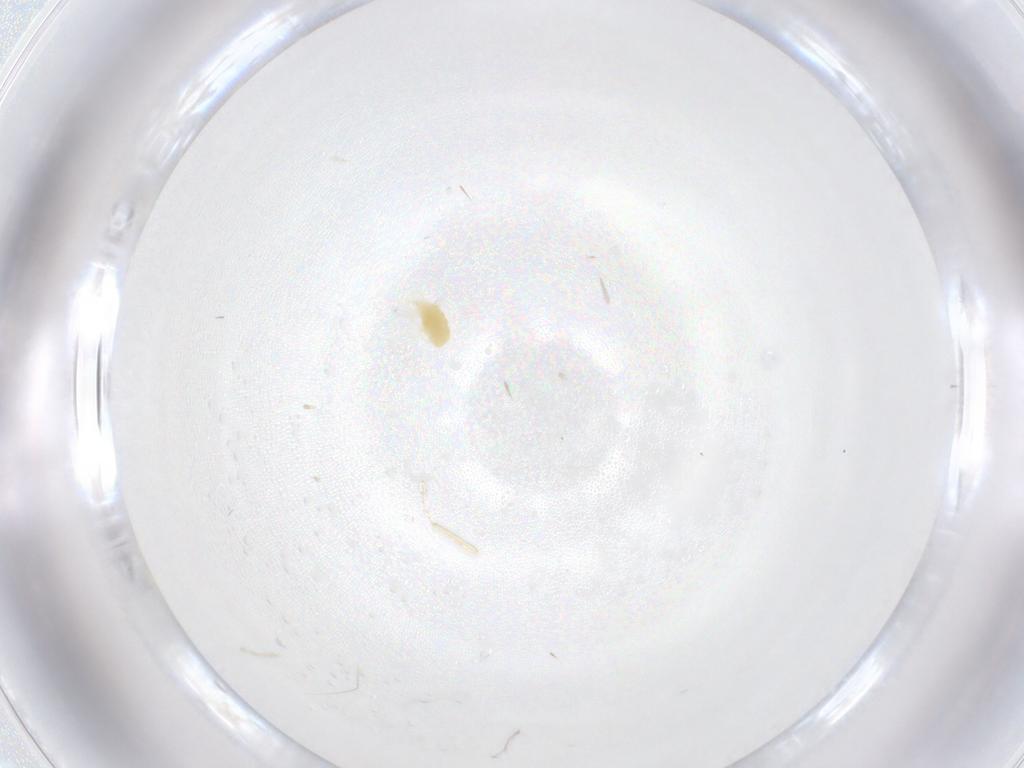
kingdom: Animalia
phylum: Arthropoda
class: Arachnida
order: Trombidiformes
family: Tetranychidae
